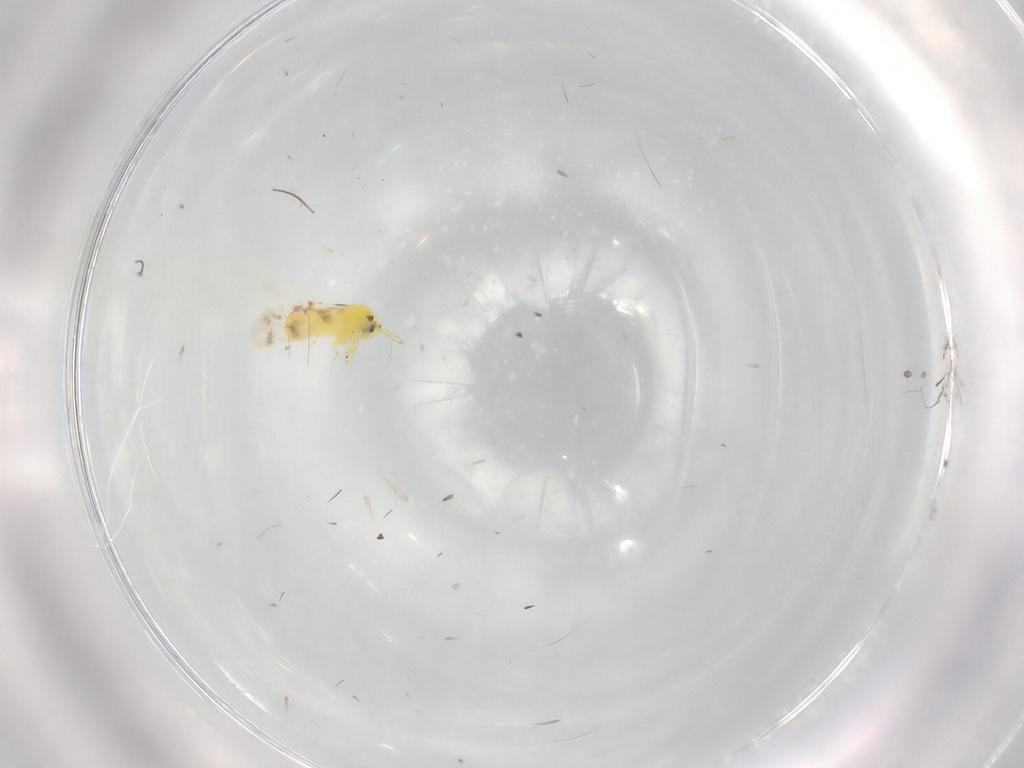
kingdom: Animalia
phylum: Arthropoda
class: Insecta
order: Hemiptera
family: Aleyrodidae
